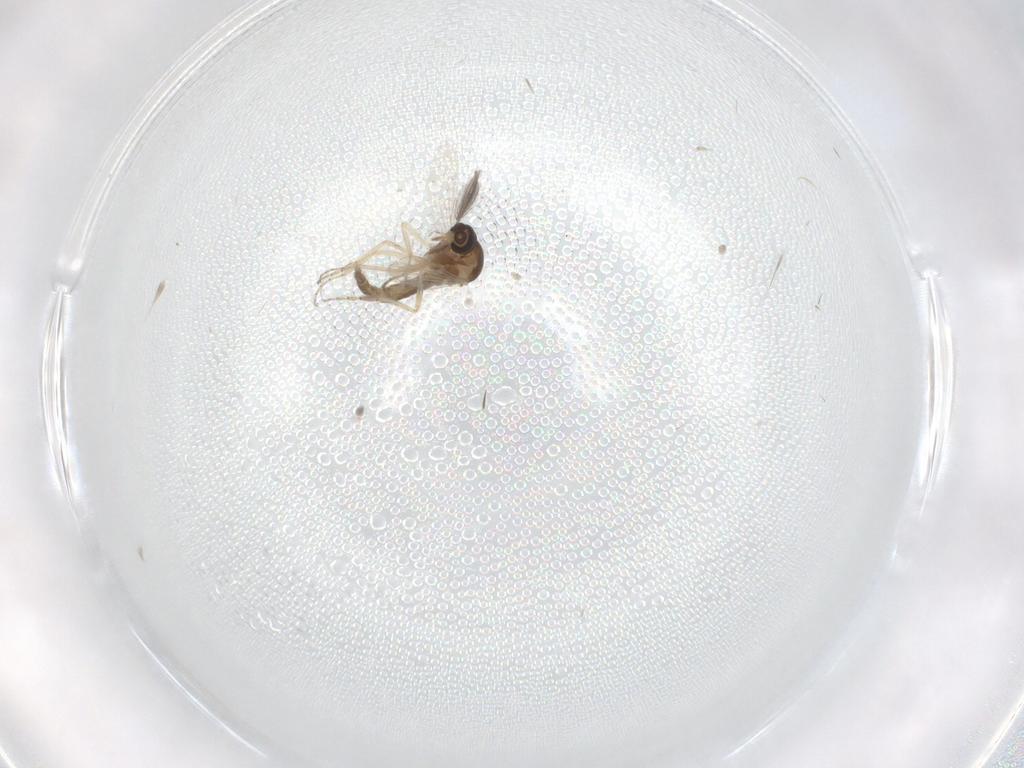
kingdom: Animalia
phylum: Arthropoda
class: Insecta
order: Diptera
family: Ceratopogonidae
